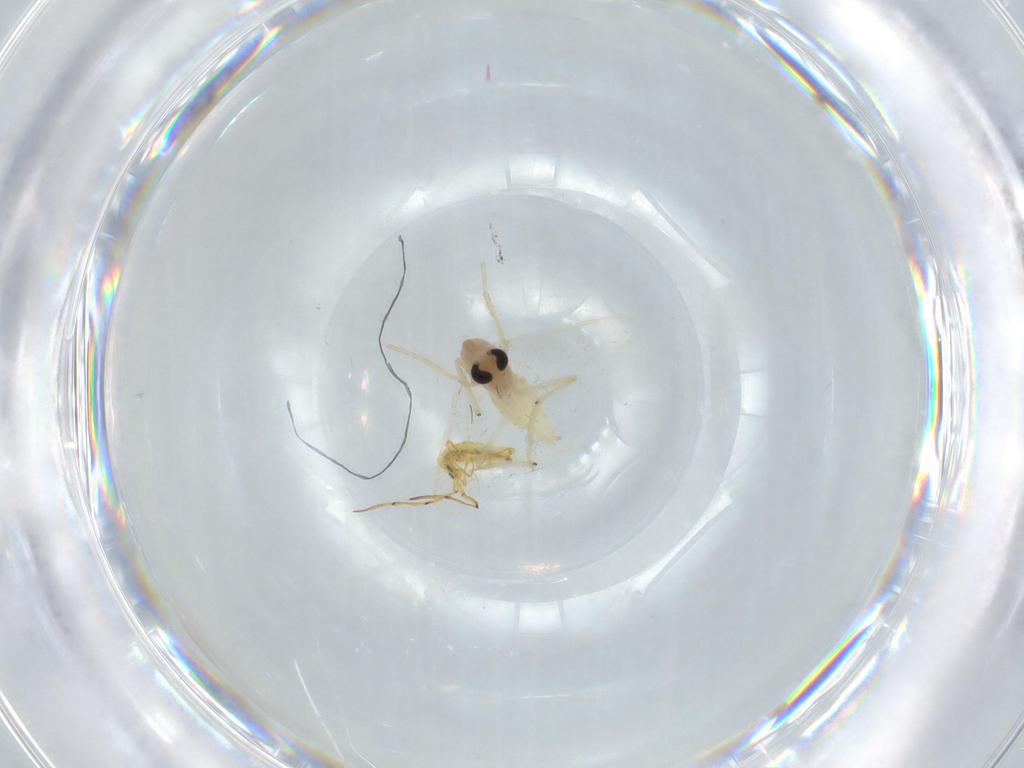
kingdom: Animalia
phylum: Arthropoda
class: Insecta
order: Diptera
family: Chironomidae
